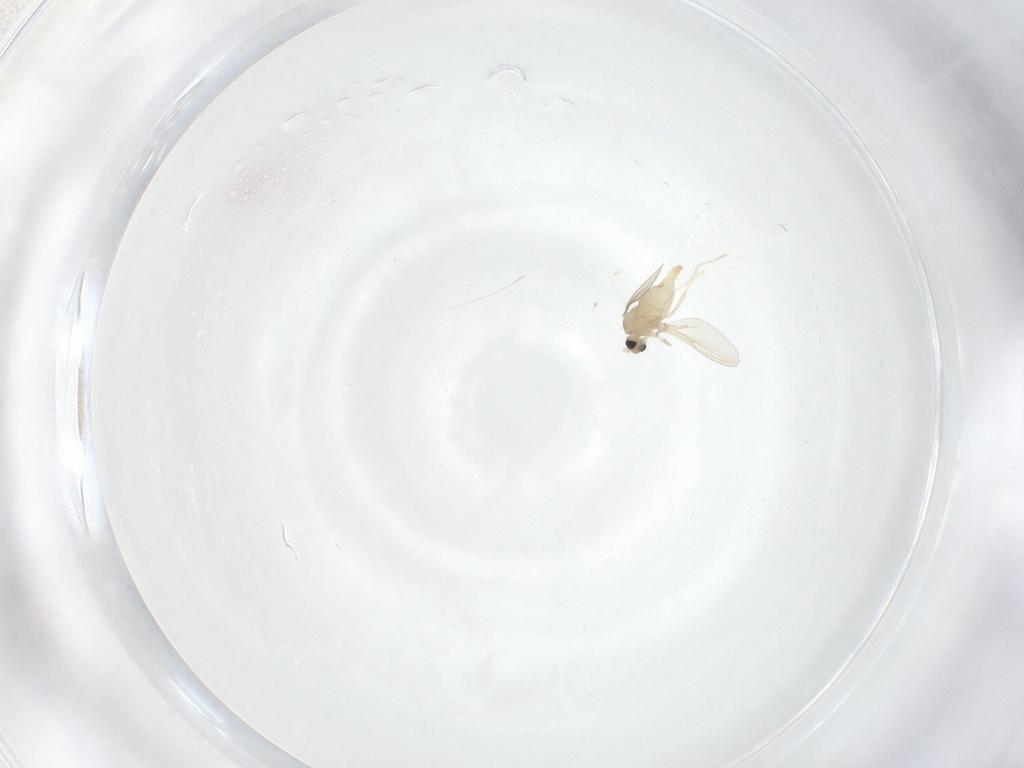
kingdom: Animalia
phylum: Arthropoda
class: Insecta
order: Diptera
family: Cecidomyiidae
